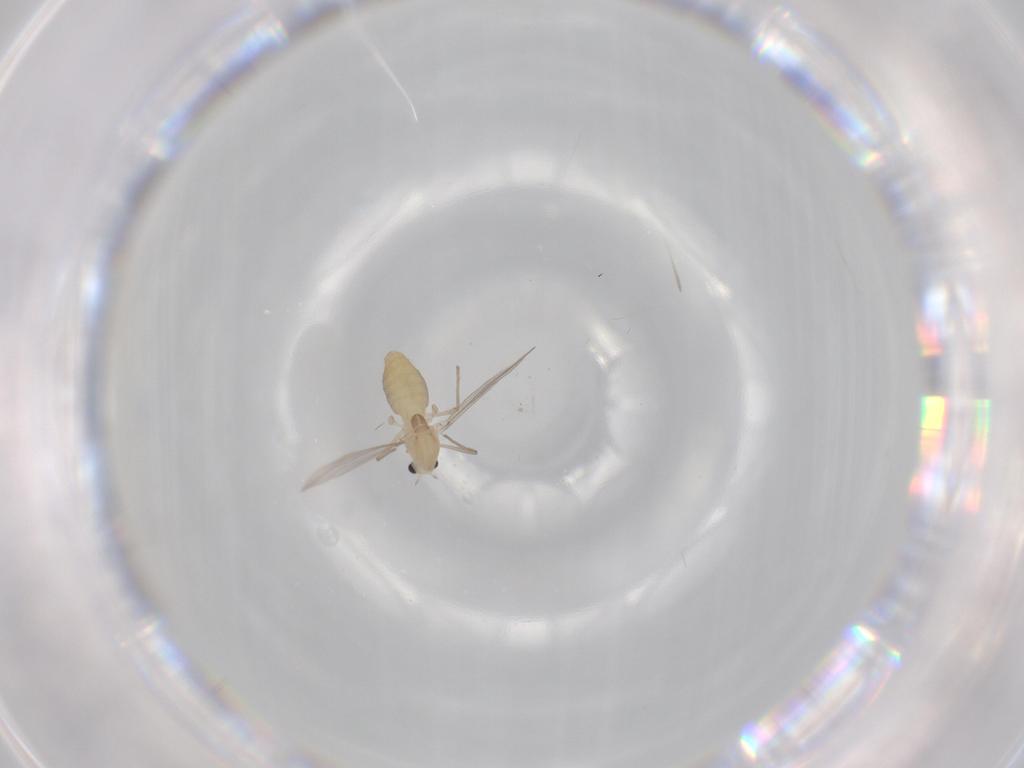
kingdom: Animalia
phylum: Arthropoda
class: Insecta
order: Diptera
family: Chironomidae
